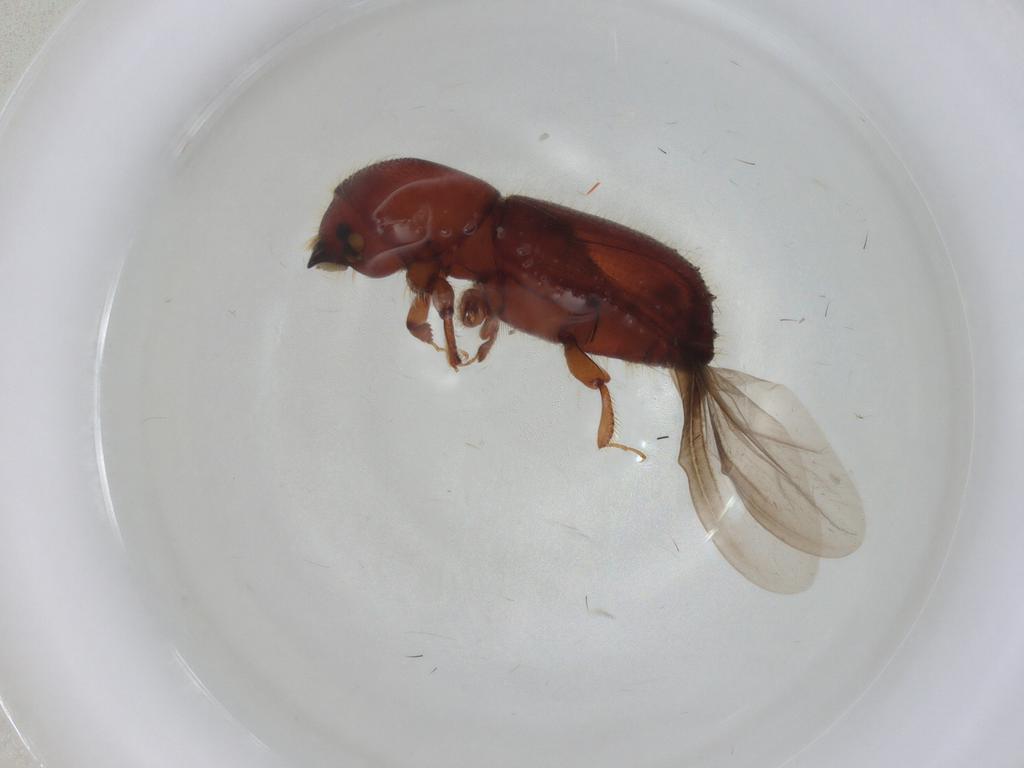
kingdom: Animalia
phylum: Arthropoda
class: Insecta
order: Coleoptera
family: Curculionidae
